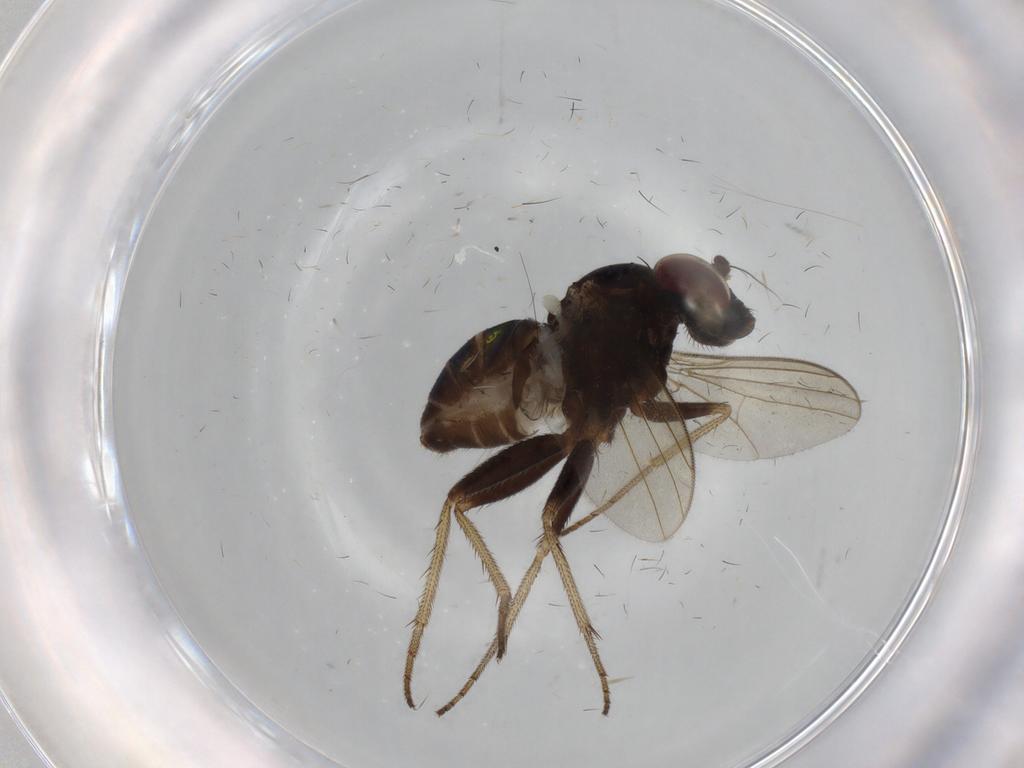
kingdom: Animalia
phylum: Arthropoda
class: Insecta
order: Diptera
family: Dolichopodidae
